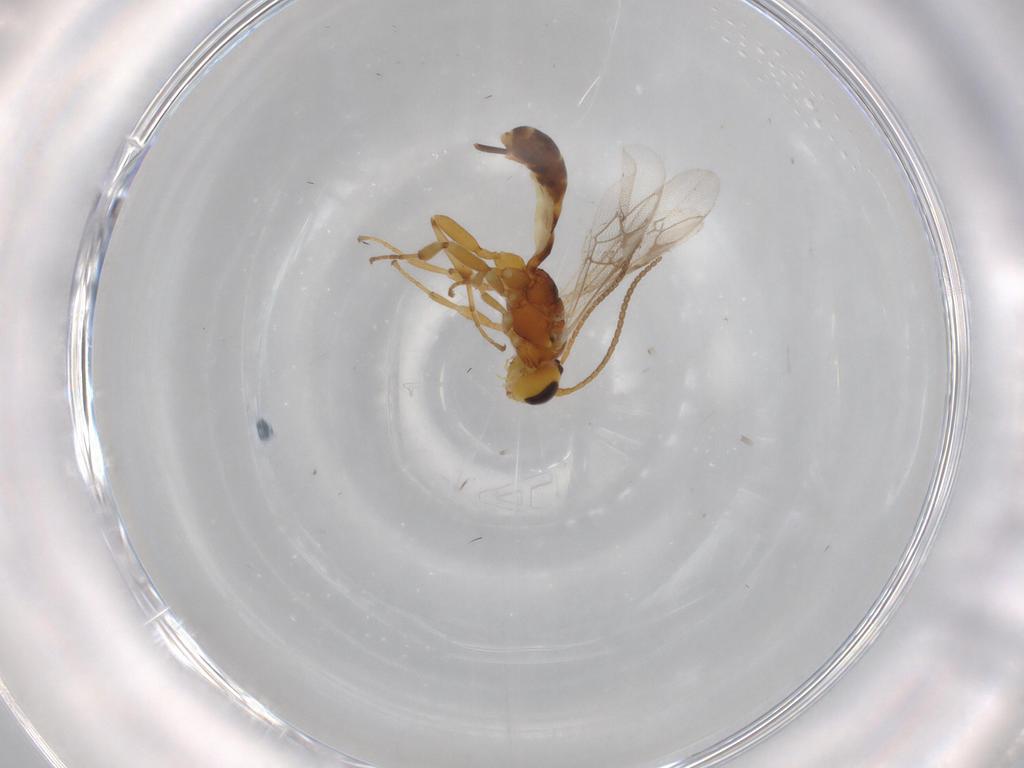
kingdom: Animalia
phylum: Arthropoda
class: Insecta
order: Hymenoptera
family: Ichneumonidae
